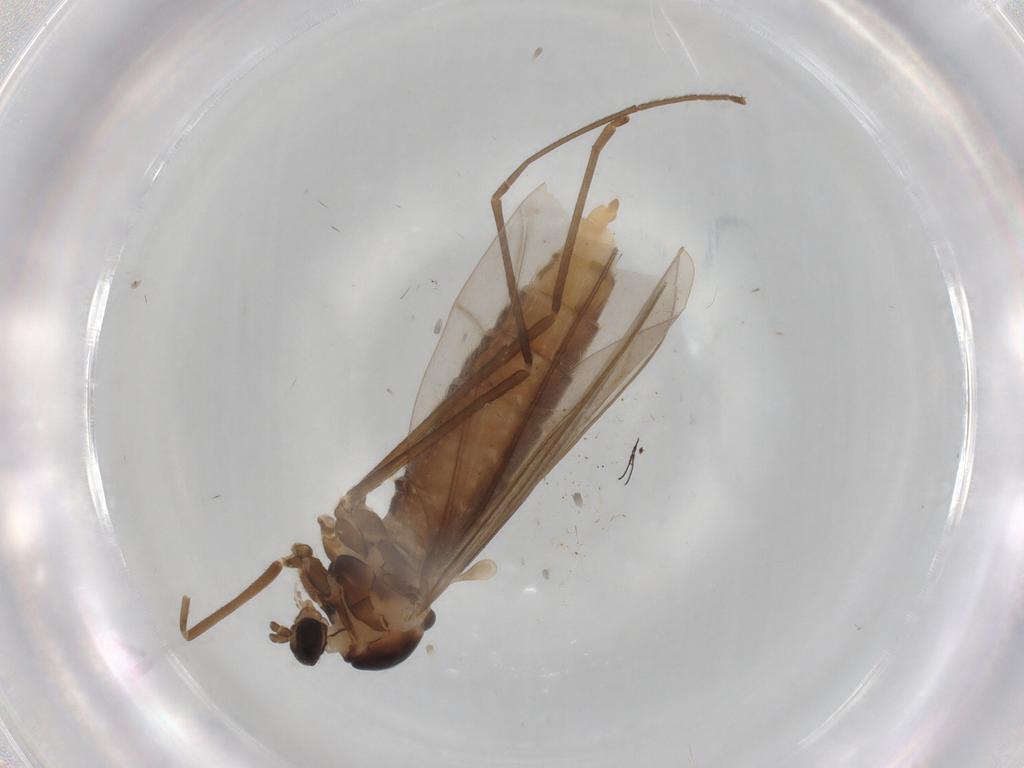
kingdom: Animalia
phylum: Arthropoda
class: Insecta
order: Diptera
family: Cecidomyiidae
